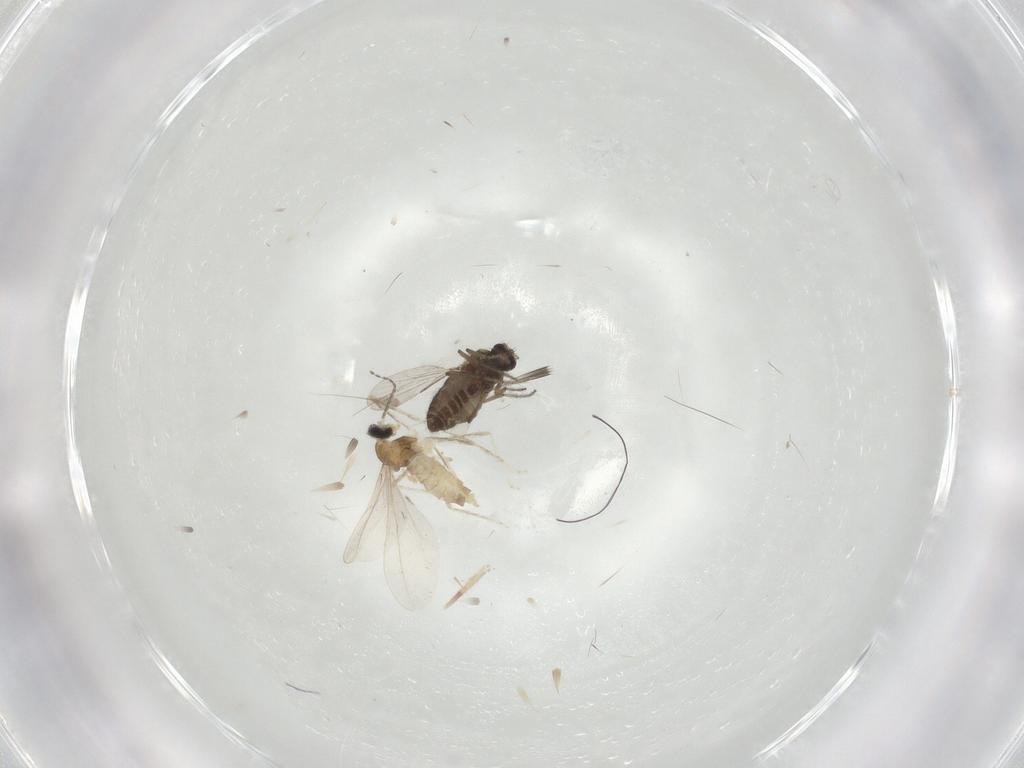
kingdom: Animalia
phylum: Arthropoda
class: Insecta
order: Diptera
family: Ceratopogonidae
